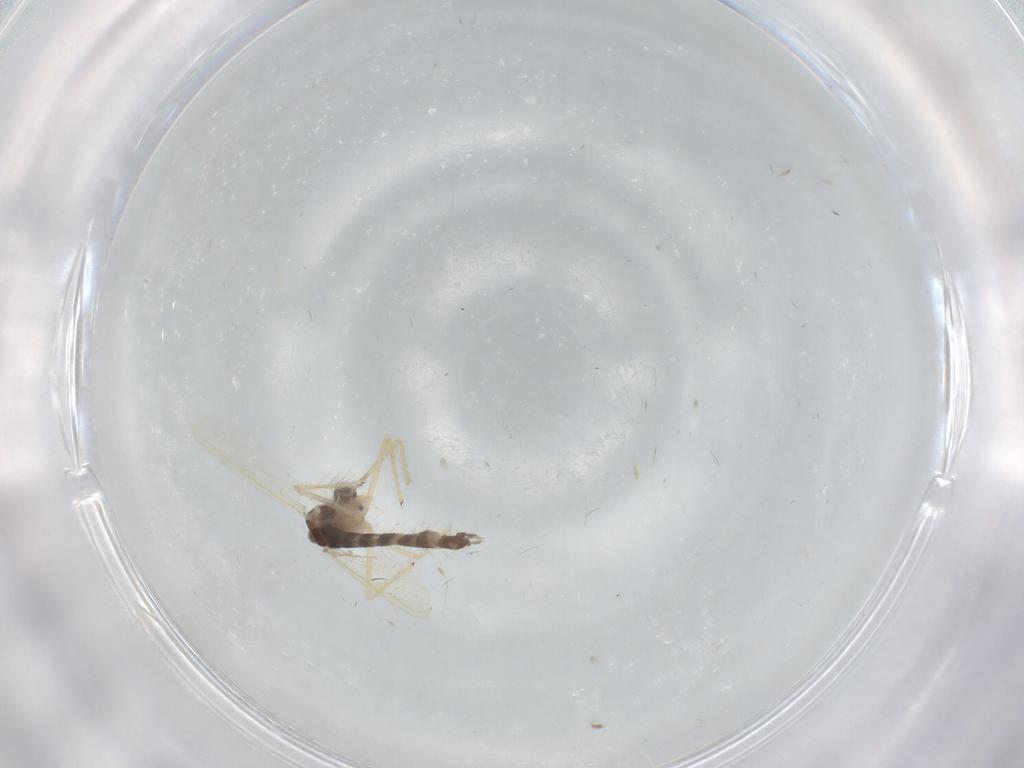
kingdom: Animalia
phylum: Arthropoda
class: Insecta
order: Diptera
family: Chironomidae
